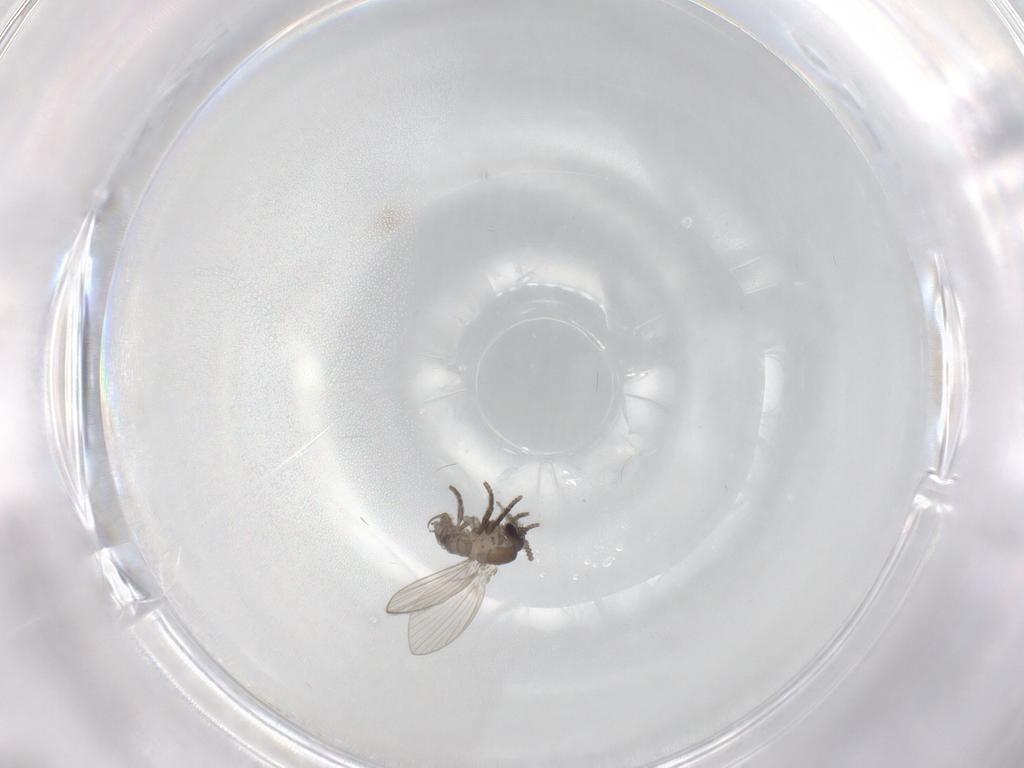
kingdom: Animalia
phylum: Arthropoda
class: Insecta
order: Diptera
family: Psychodidae
